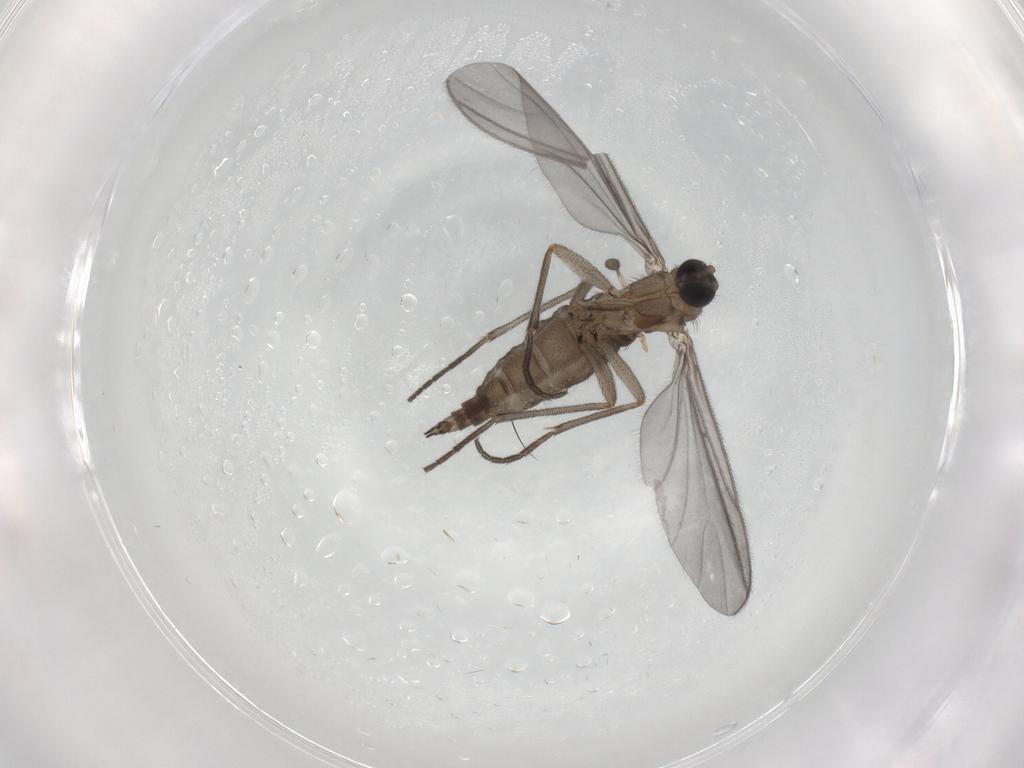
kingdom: Animalia
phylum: Arthropoda
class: Insecta
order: Diptera
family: Sciaridae
